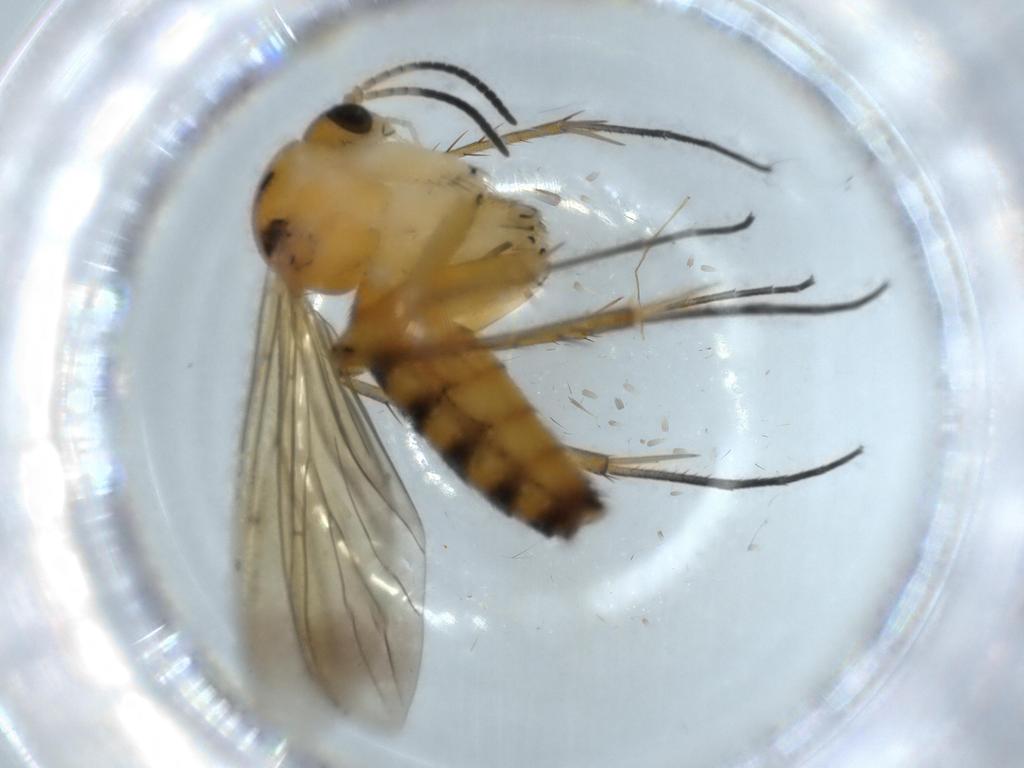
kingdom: Animalia
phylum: Arthropoda
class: Insecta
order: Diptera
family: Mycetophilidae
